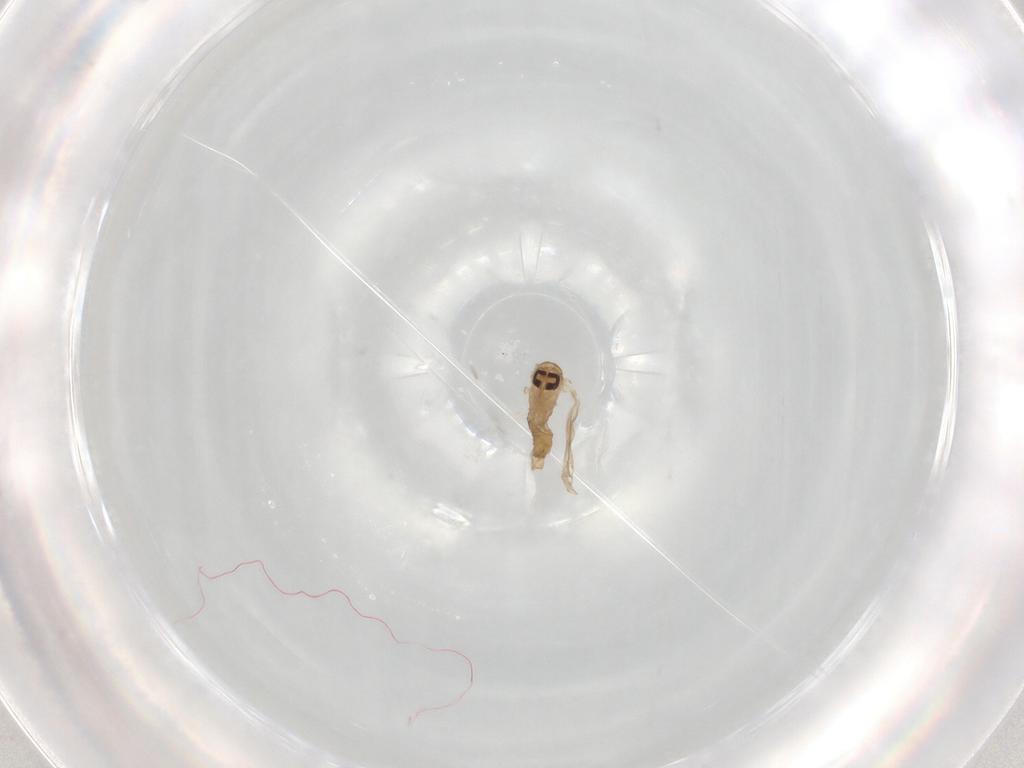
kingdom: Animalia
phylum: Arthropoda
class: Insecta
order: Diptera
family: Psychodidae
